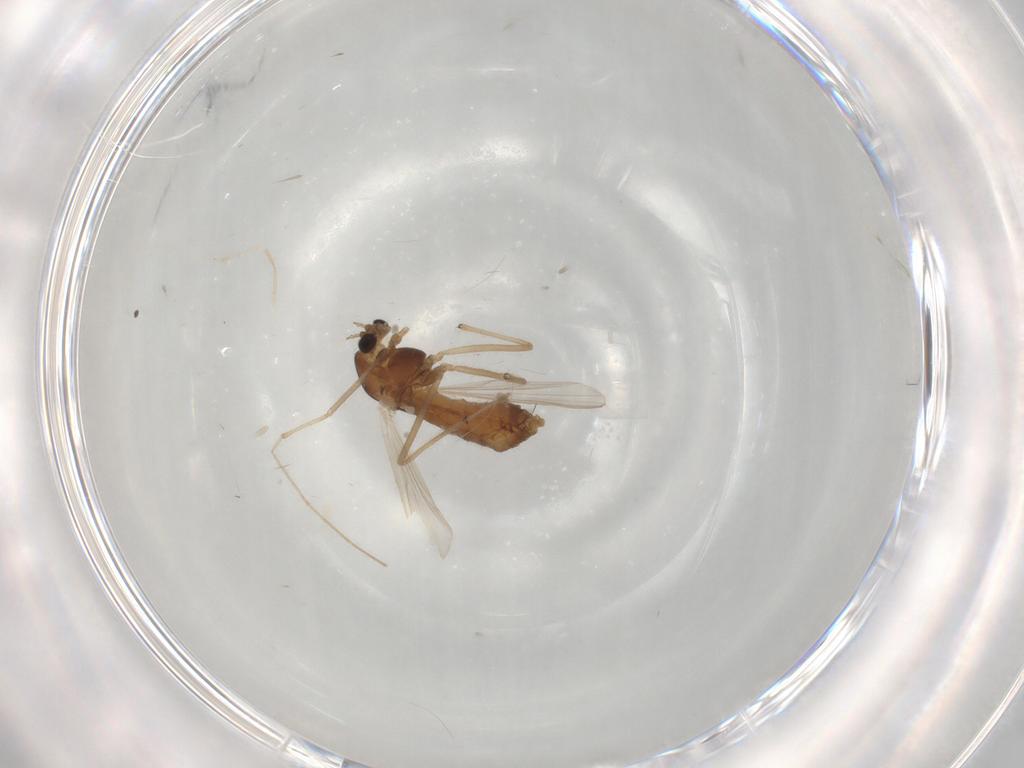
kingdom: Animalia
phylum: Arthropoda
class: Insecta
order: Diptera
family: Chironomidae
